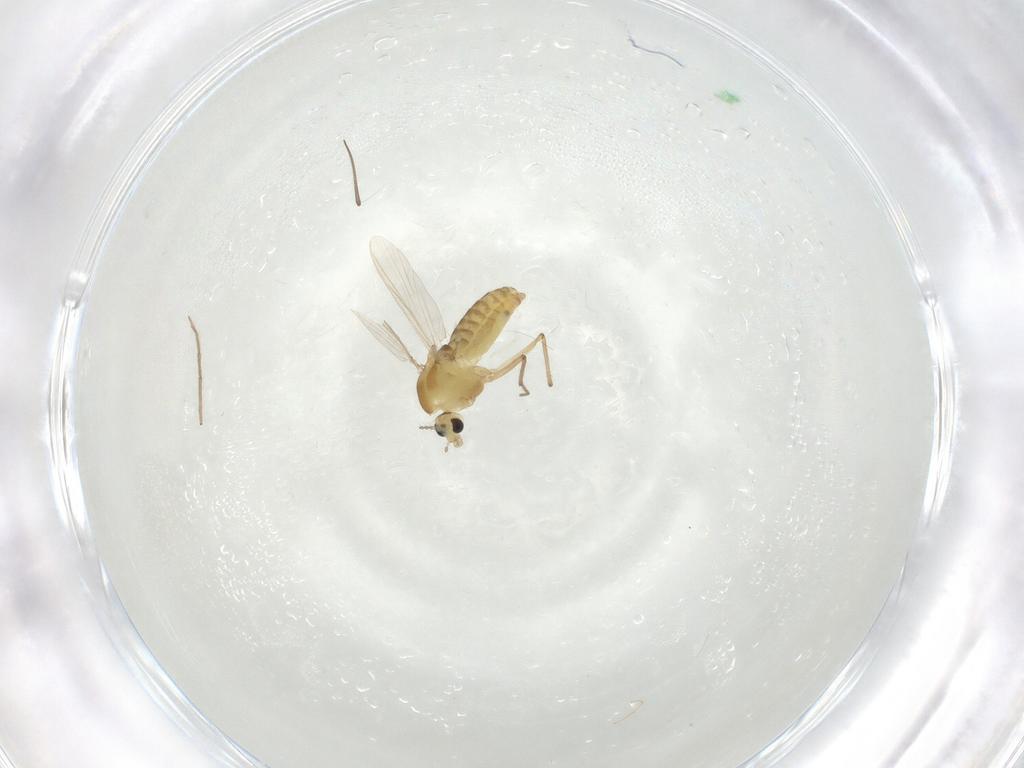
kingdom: Animalia
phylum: Arthropoda
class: Insecta
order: Diptera
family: Chironomidae
